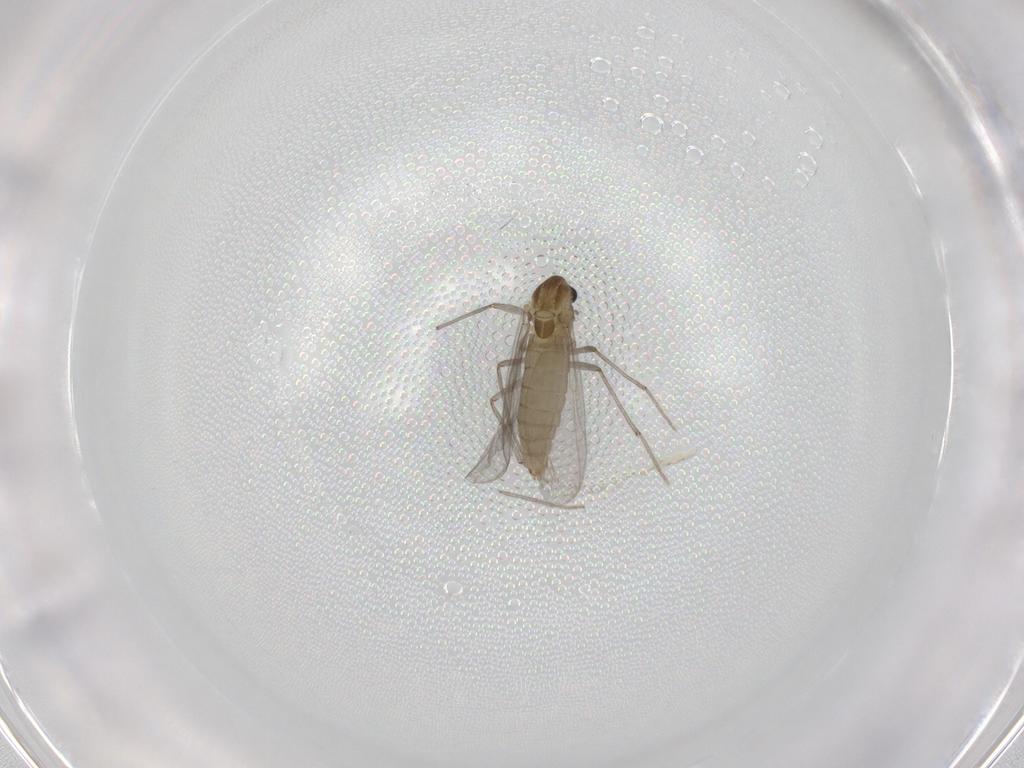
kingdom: Animalia
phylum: Arthropoda
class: Insecta
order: Diptera
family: Chironomidae
